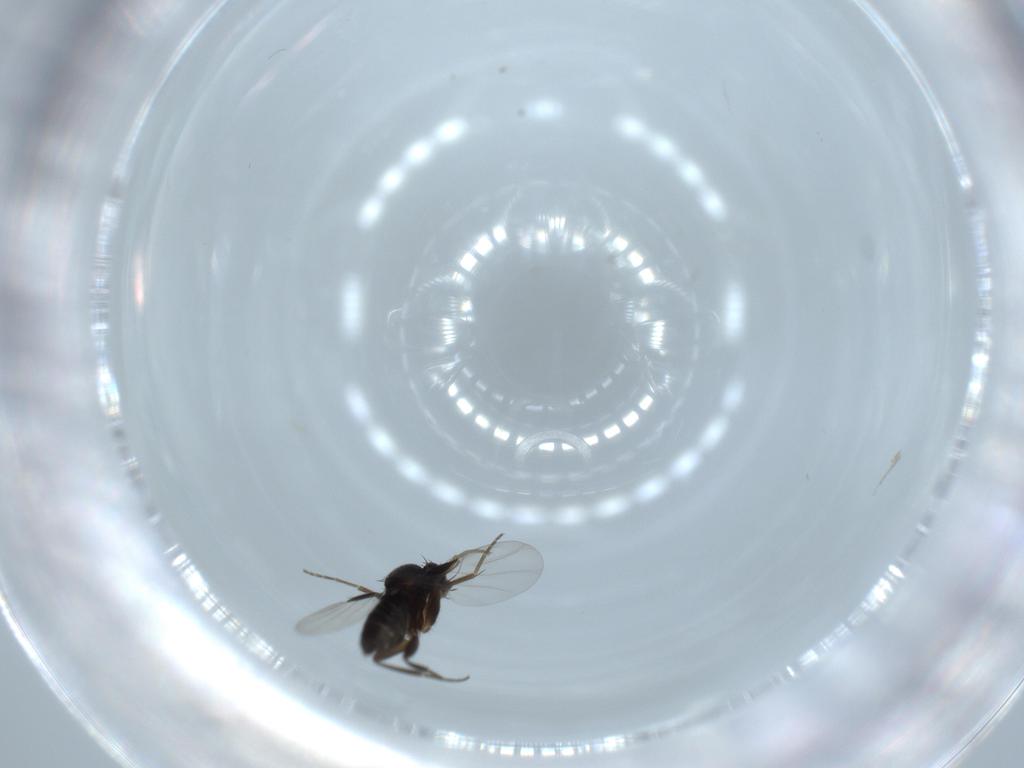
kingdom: Animalia
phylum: Arthropoda
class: Insecta
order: Diptera
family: Phoridae
